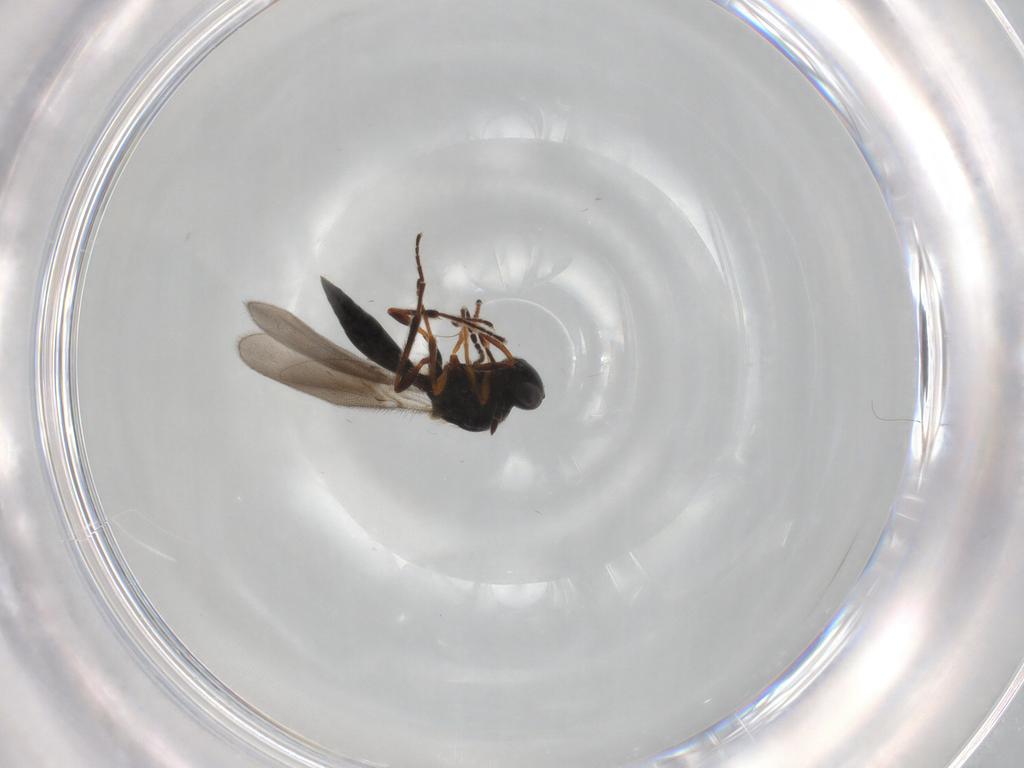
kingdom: Animalia
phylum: Arthropoda
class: Insecta
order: Hymenoptera
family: Platygastridae
